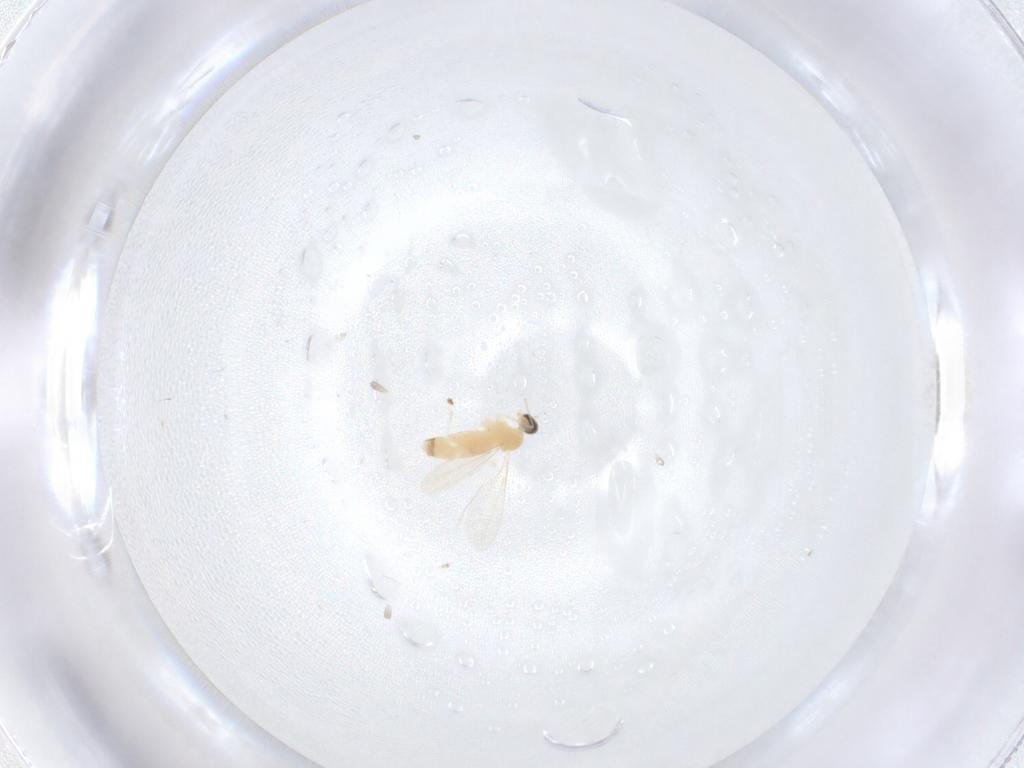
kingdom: Animalia
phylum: Arthropoda
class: Insecta
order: Diptera
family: Cecidomyiidae
